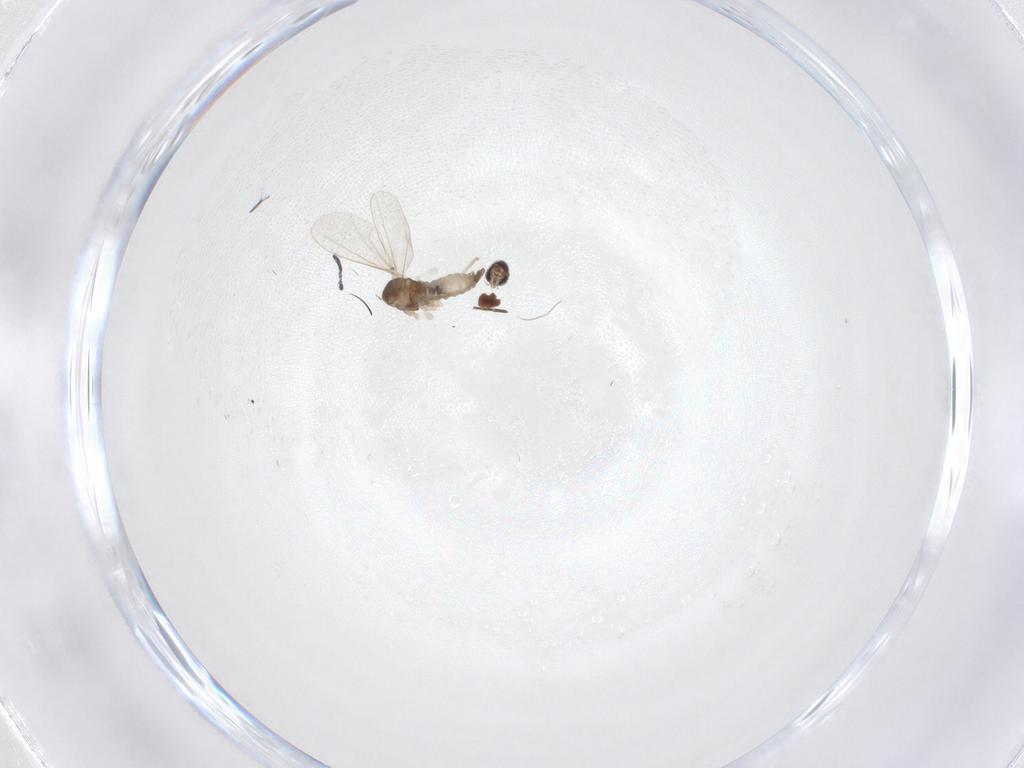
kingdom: Animalia
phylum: Arthropoda
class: Insecta
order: Diptera
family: Cecidomyiidae
